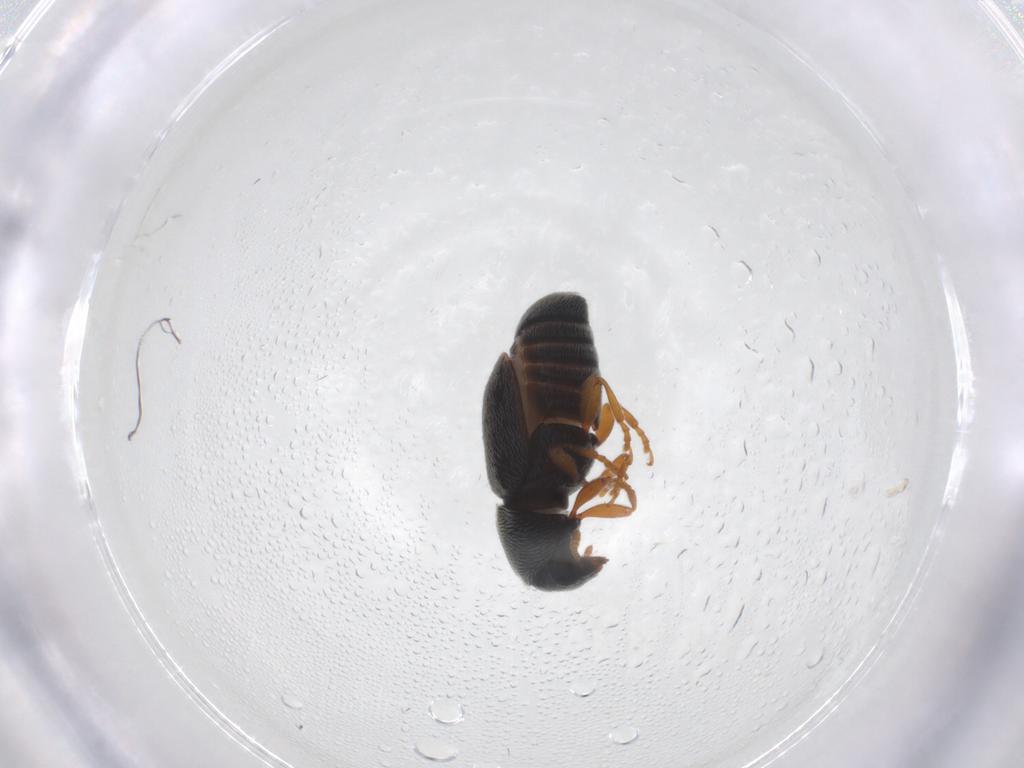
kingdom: Animalia
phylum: Arthropoda
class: Insecta
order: Coleoptera
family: Anthribidae
